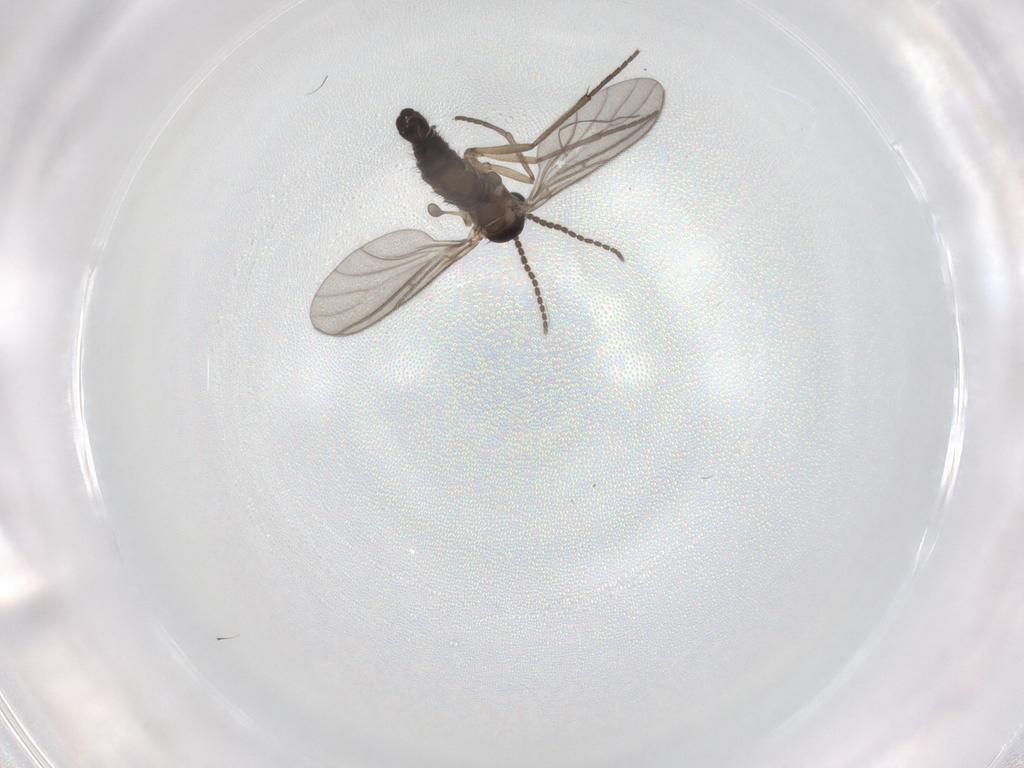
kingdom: Animalia
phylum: Arthropoda
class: Insecta
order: Diptera
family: Sciaridae
